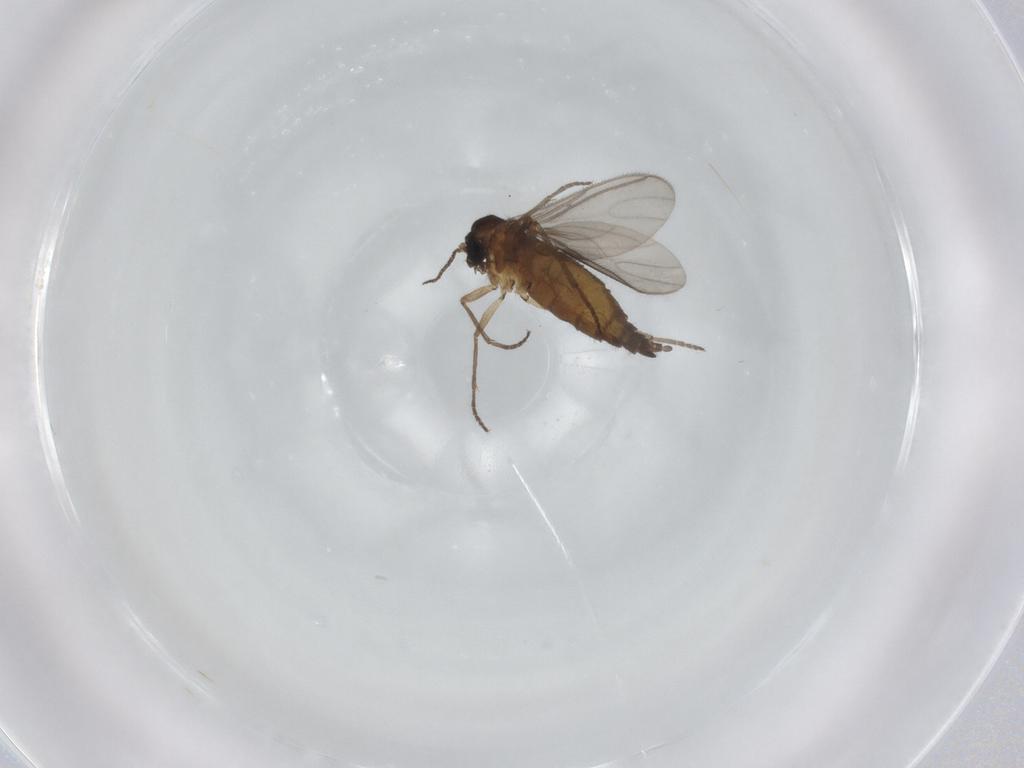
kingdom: Animalia
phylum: Arthropoda
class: Insecta
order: Diptera
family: Sciaridae
